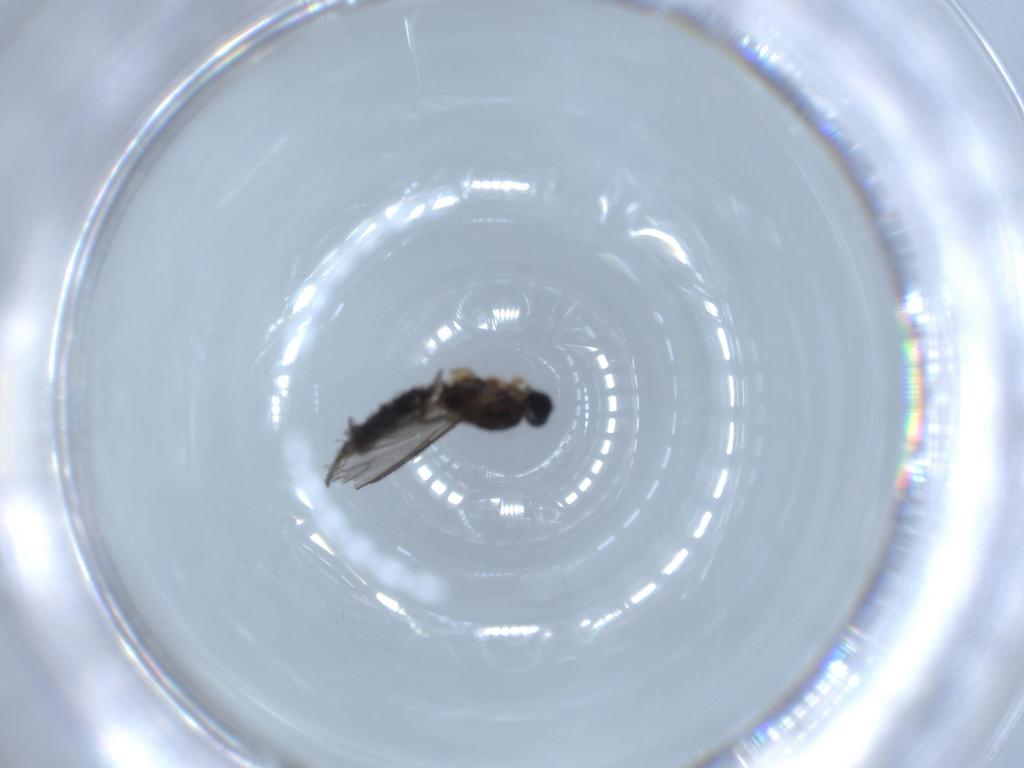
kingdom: Animalia
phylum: Arthropoda
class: Insecta
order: Diptera
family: Sciaridae
